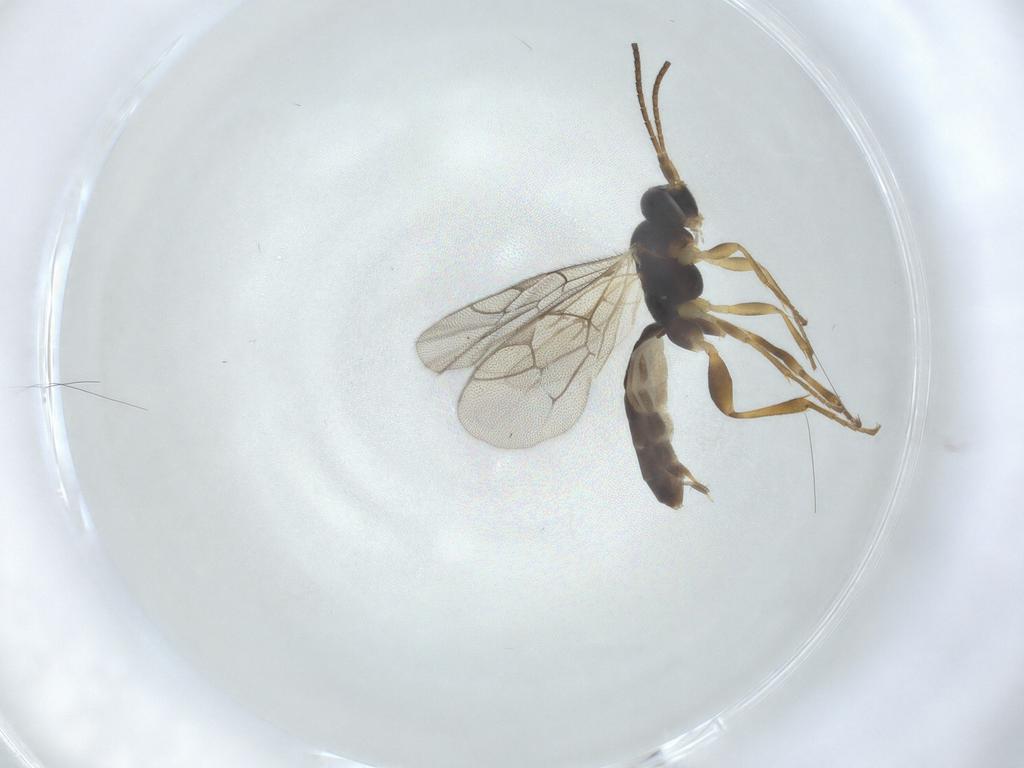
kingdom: Animalia
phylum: Arthropoda
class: Insecta
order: Hymenoptera
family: Ichneumonidae
